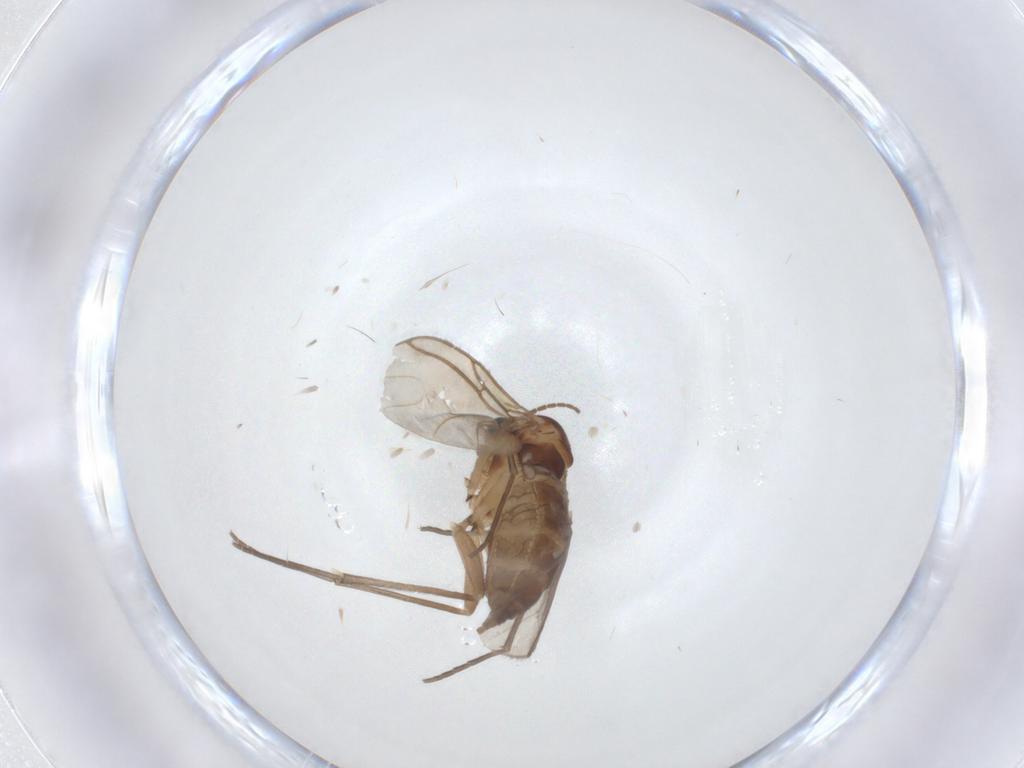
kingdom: Animalia
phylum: Arthropoda
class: Insecta
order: Diptera
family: Sciaridae
